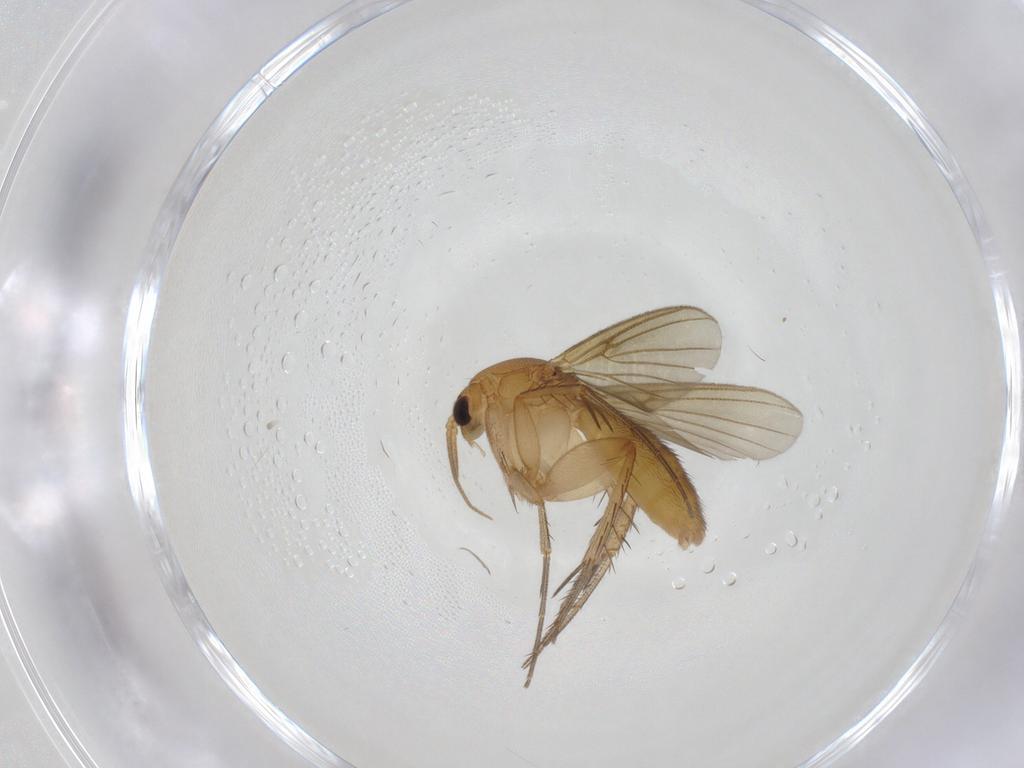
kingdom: Animalia
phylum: Arthropoda
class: Insecta
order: Diptera
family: Mycetophilidae
